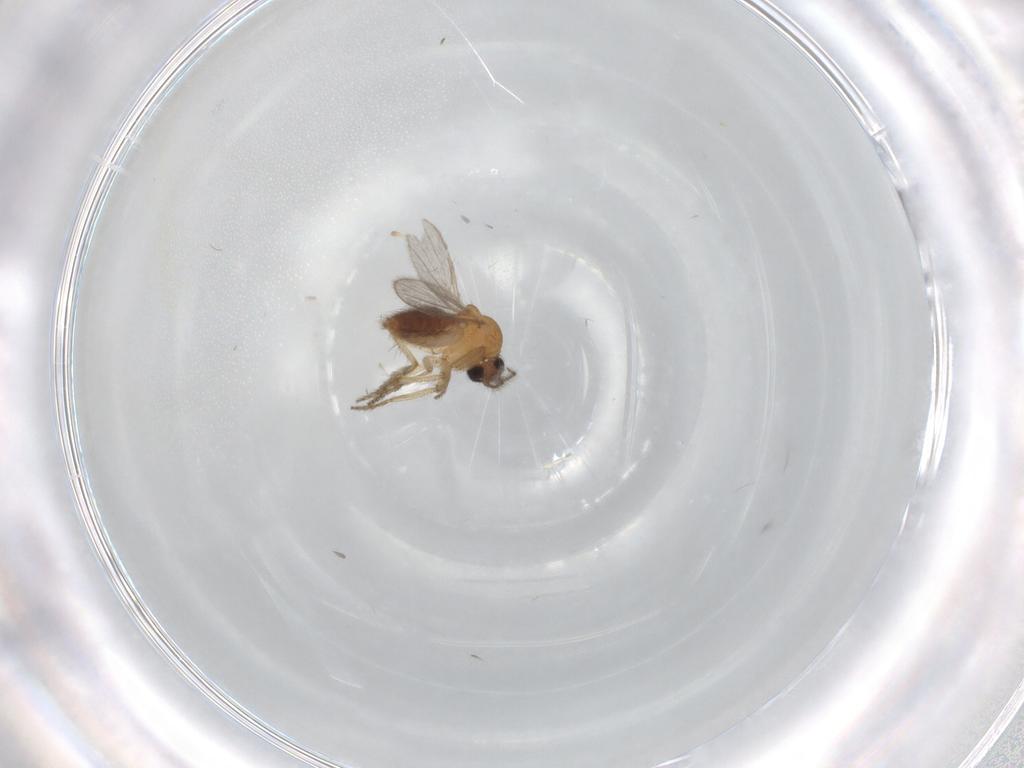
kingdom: Animalia
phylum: Arthropoda
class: Insecta
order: Diptera
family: Ceratopogonidae
